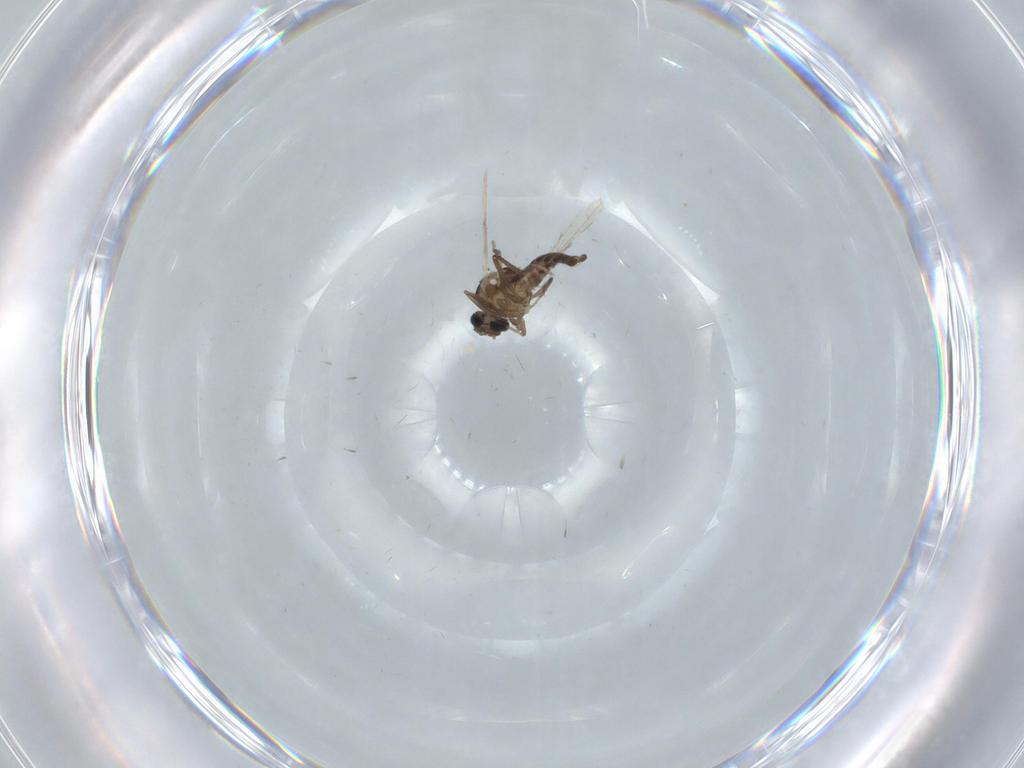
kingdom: Animalia
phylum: Arthropoda
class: Insecta
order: Diptera
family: Ceratopogonidae
